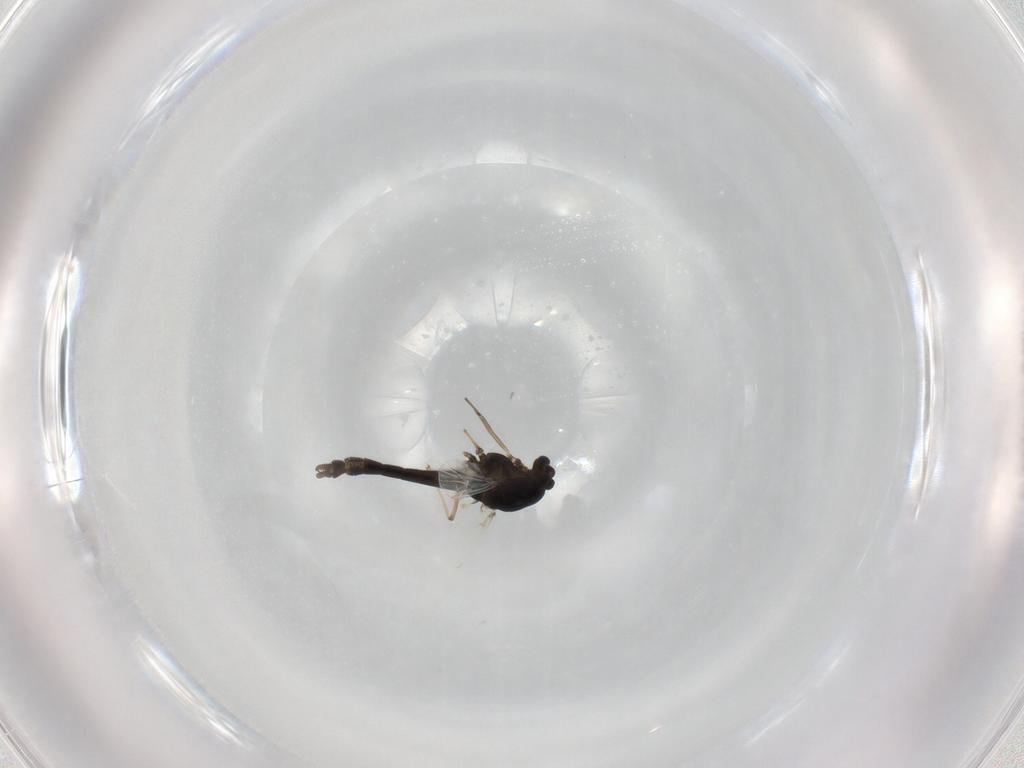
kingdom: Animalia
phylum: Arthropoda
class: Insecta
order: Diptera
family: Chironomidae
